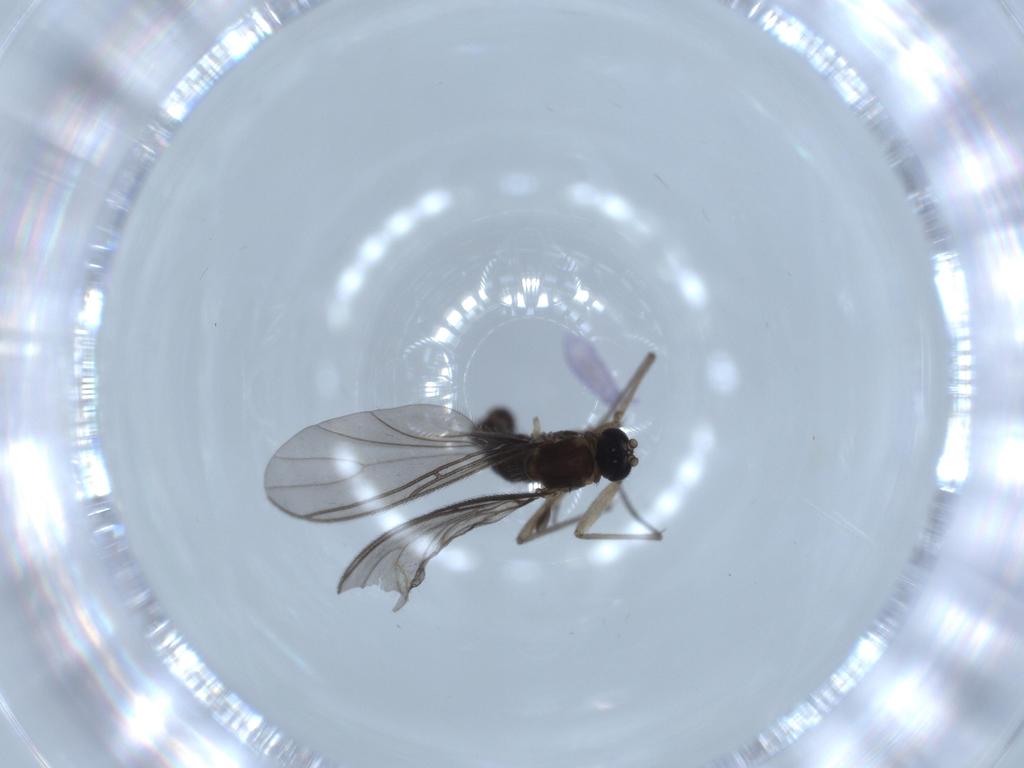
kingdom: Animalia
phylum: Arthropoda
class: Insecta
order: Diptera
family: Sciaridae
